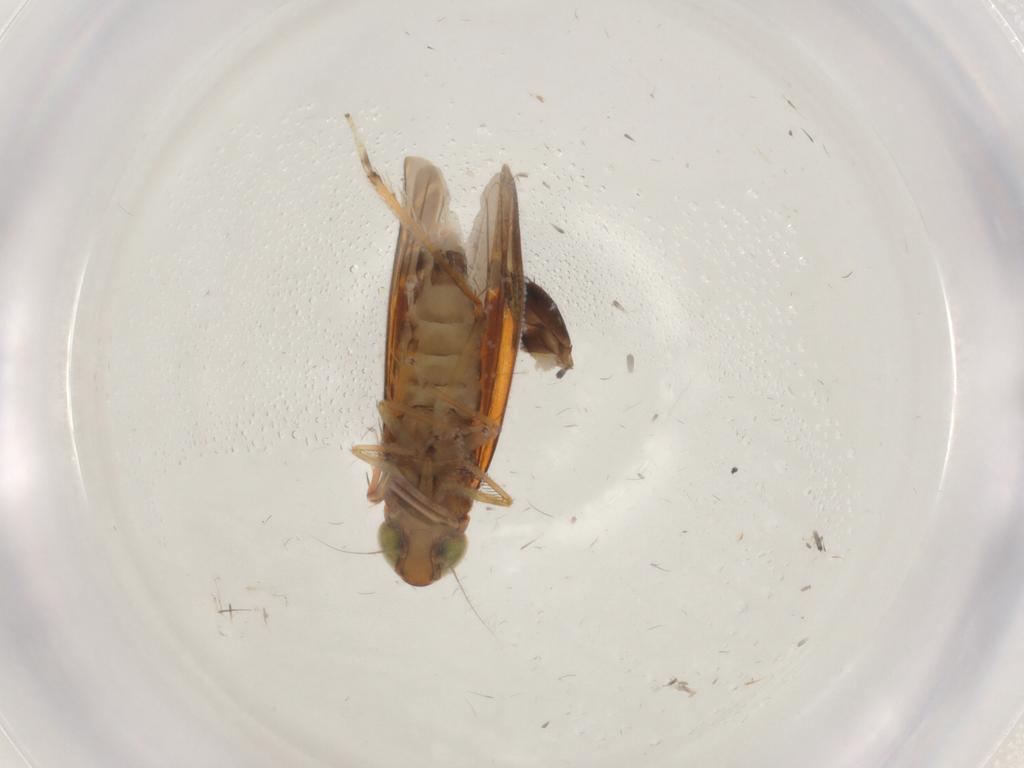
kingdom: Animalia
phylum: Arthropoda
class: Insecta
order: Hemiptera
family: Cicadellidae
